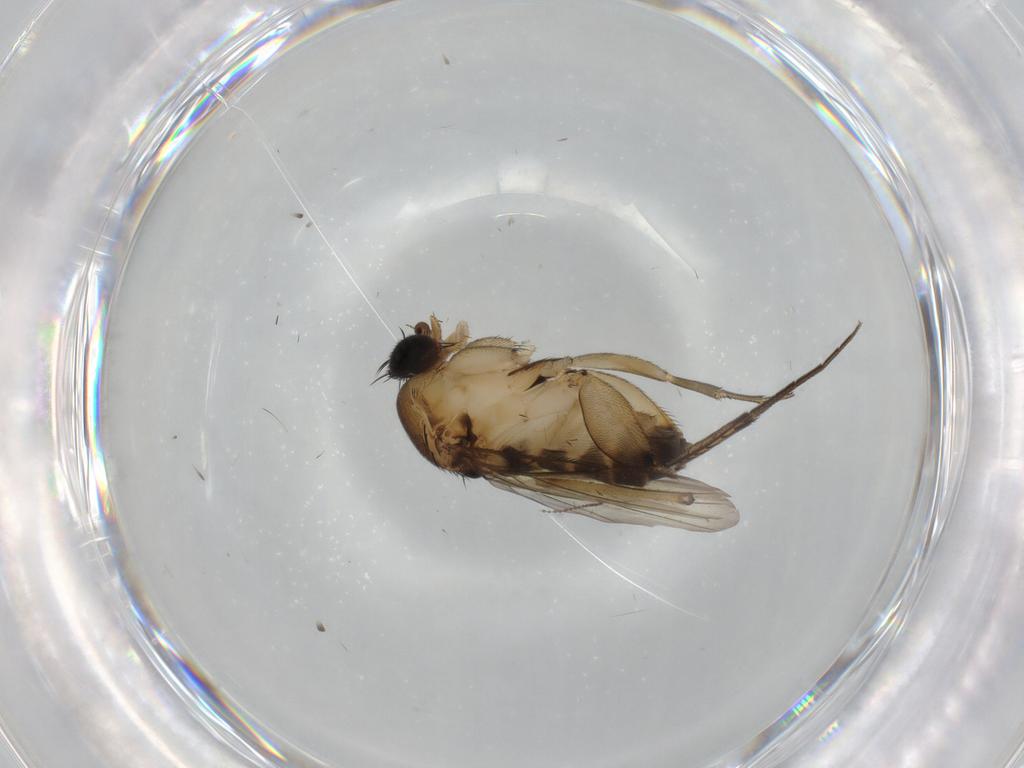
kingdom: Animalia
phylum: Arthropoda
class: Insecta
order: Diptera
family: Phoridae
